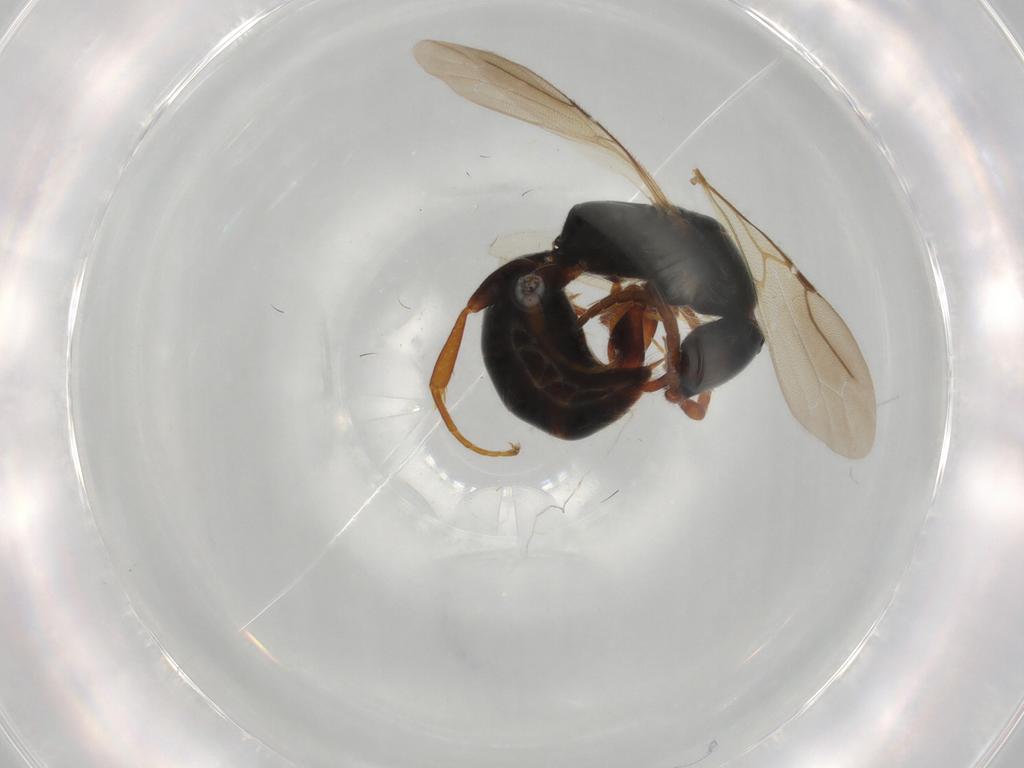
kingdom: Animalia
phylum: Arthropoda
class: Insecta
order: Hymenoptera
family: Bethylidae
